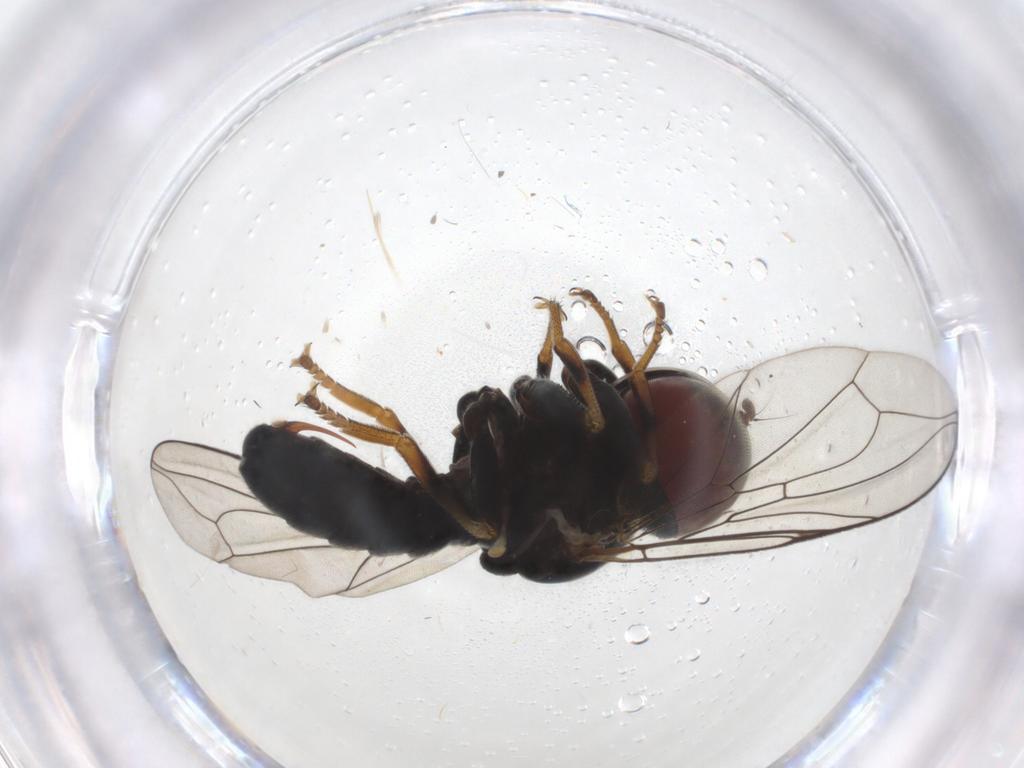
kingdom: Animalia
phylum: Arthropoda
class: Insecta
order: Diptera
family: Pipunculidae
